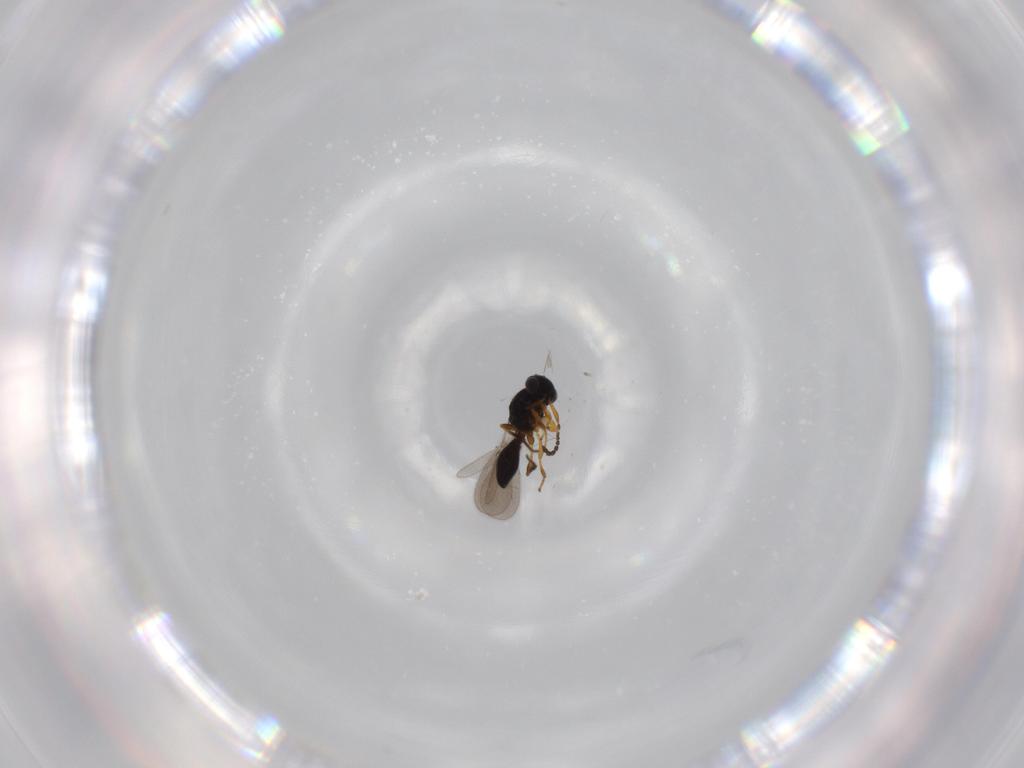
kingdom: Animalia
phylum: Arthropoda
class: Insecta
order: Hymenoptera
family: Platygastridae
